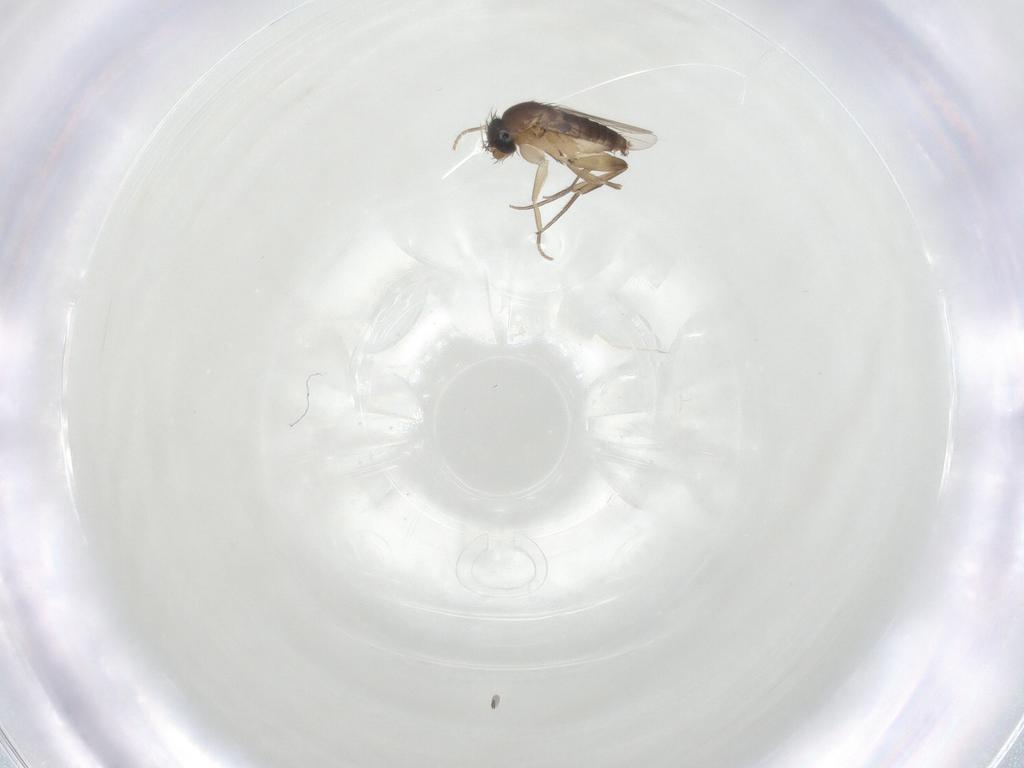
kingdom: Animalia
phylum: Arthropoda
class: Insecta
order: Diptera
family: Phoridae
